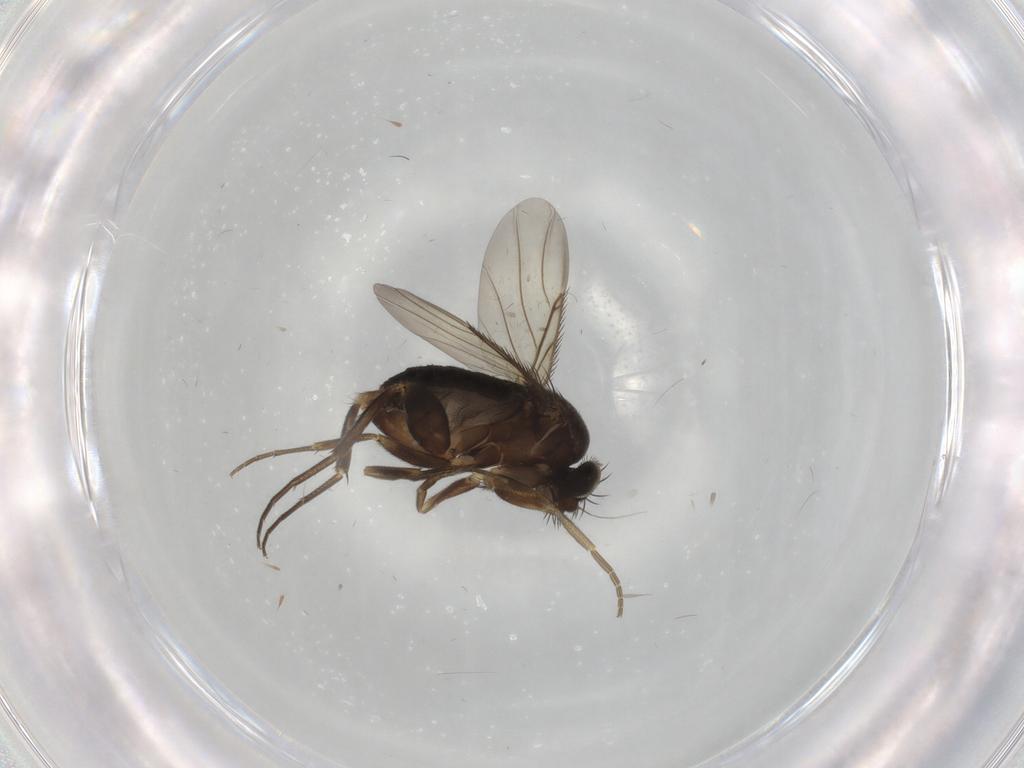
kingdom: Animalia
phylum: Arthropoda
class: Insecta
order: Diptera
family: Phoridae
